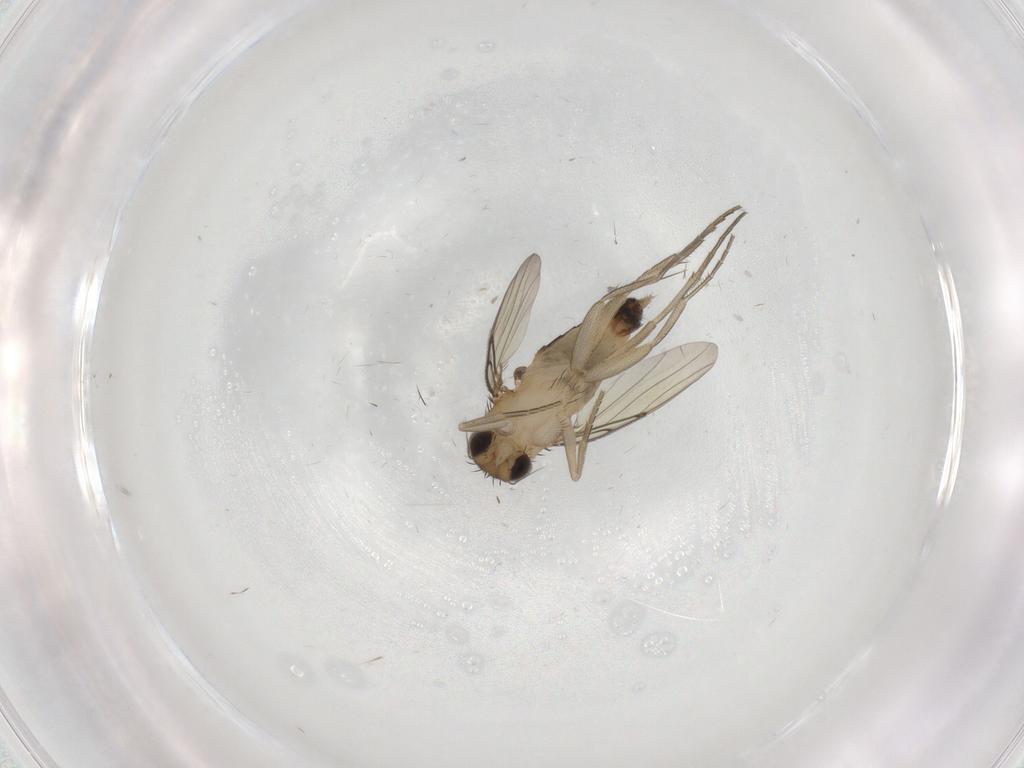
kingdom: Animalia
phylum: Arthropoda
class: Insecta
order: Diptera
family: Phoridae
